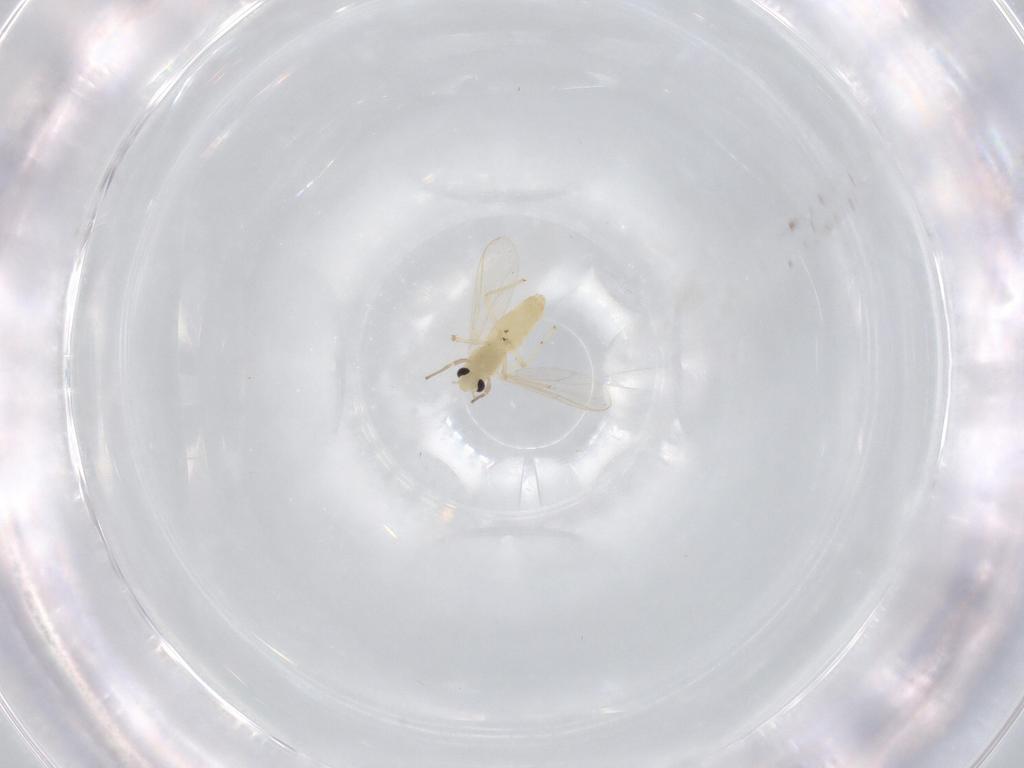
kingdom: Animalia
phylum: Arthropoda
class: Insecta
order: Diptera
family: Chironomidae
